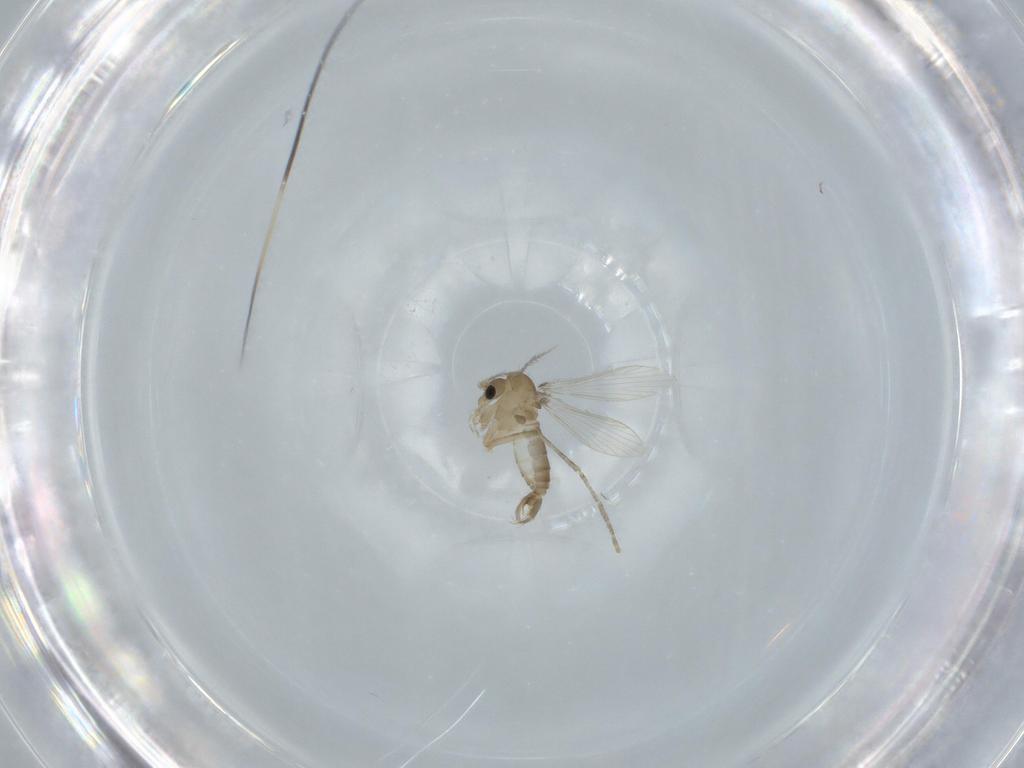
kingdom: Animalia
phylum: Arthropoda
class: Insecta
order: Diptera
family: Psychodidae
